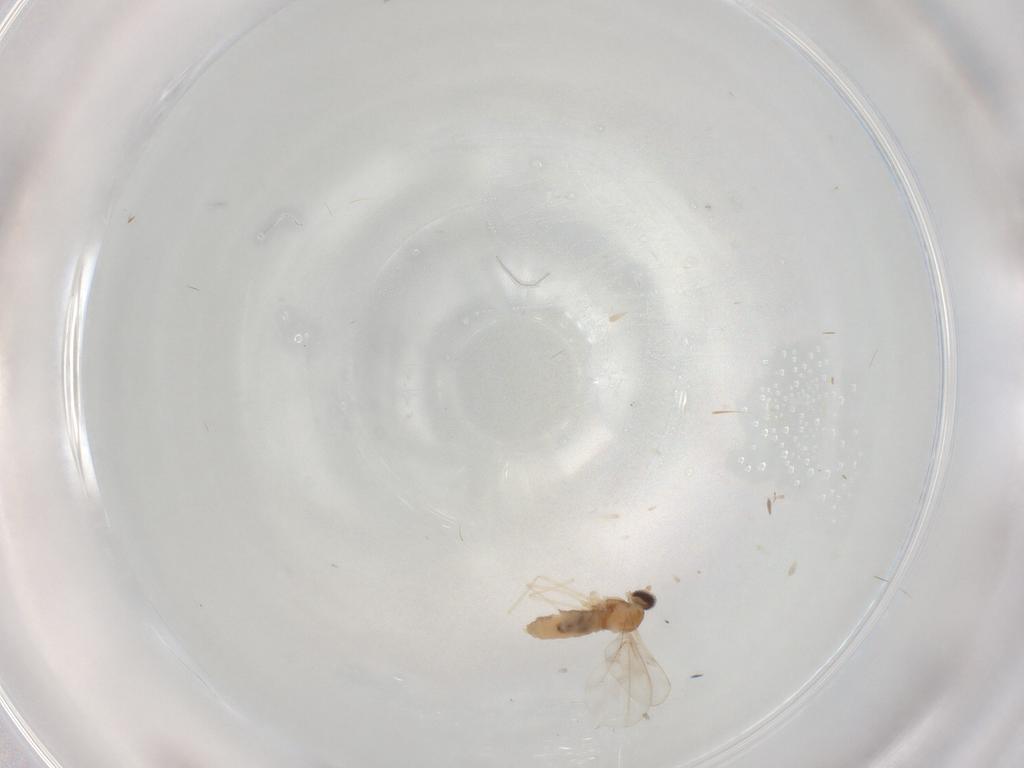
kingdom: Animalia
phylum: Arthropoda
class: Insecta
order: Diptera
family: Cecidomyiidae
